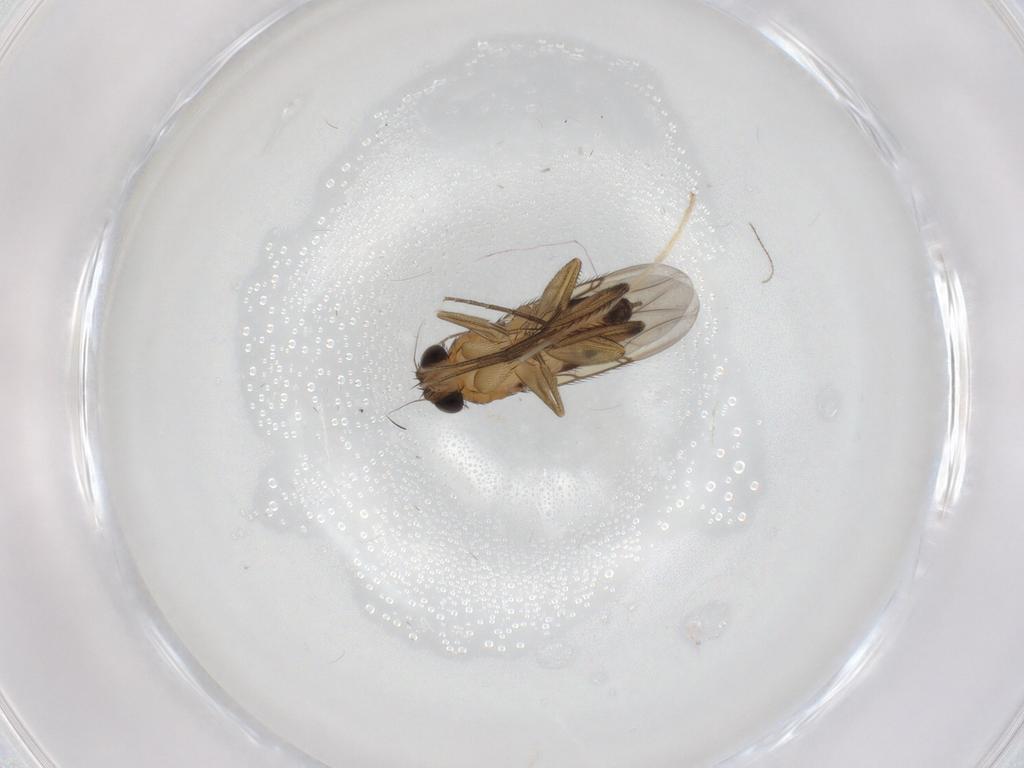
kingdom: Animalia
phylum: Arthropoda
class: Insecta
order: Diptera
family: Phoridae
